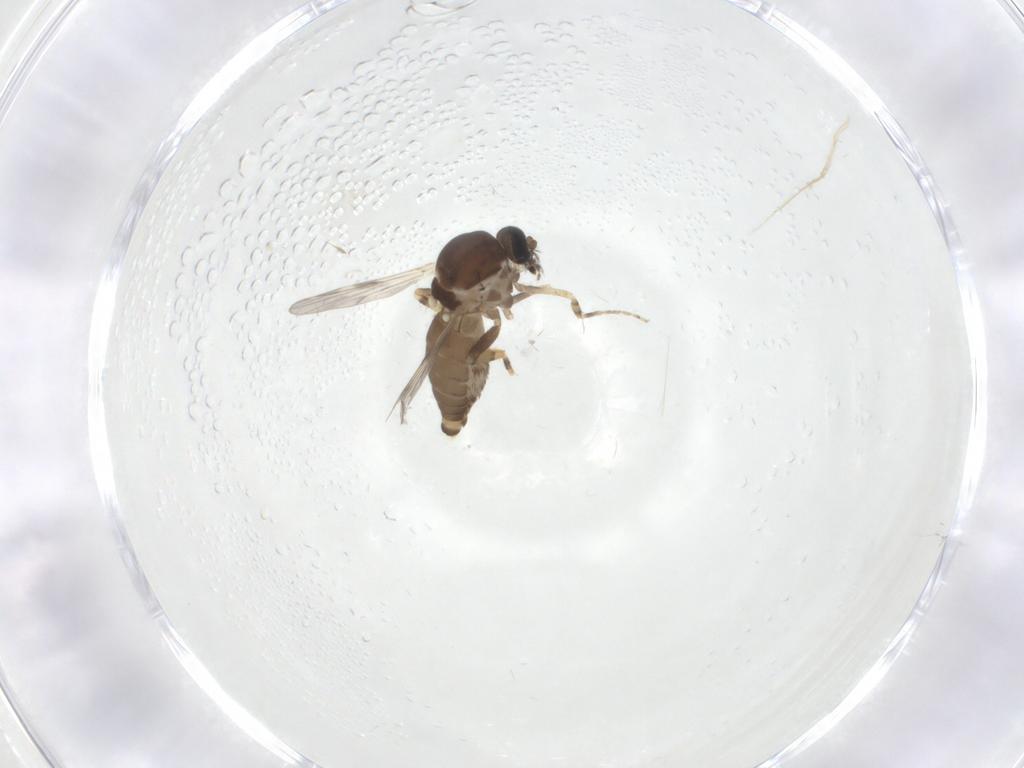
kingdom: Animalia
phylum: Arthropoda
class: Insecta
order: Diptera
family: Ceratopogonidae
